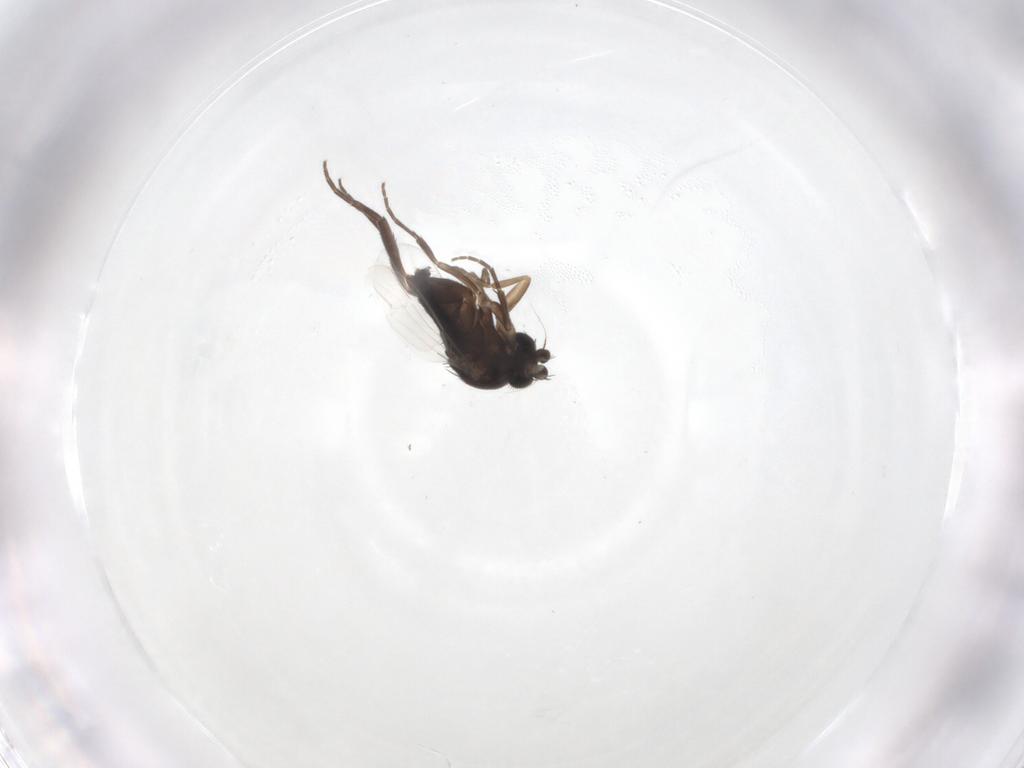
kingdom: Animalia
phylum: Arthropoda
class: Insecta
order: Diptera
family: Phoridae
